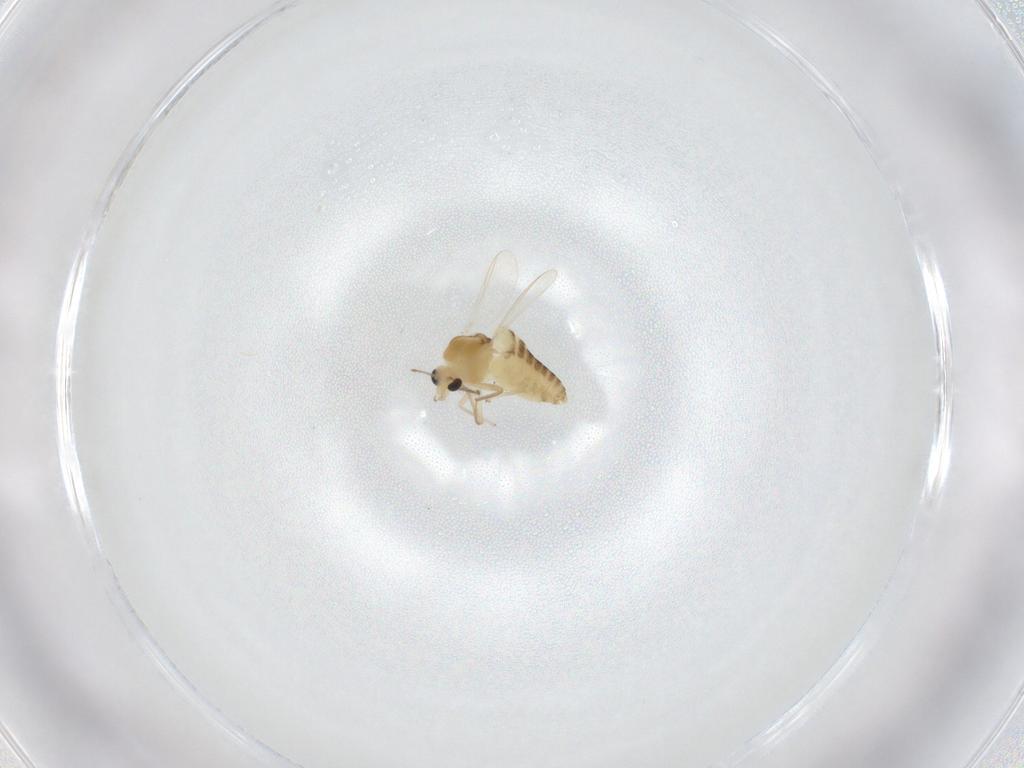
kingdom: Animalia
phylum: Arthropoda
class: Insecta
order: Diptera
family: Chironomidae
